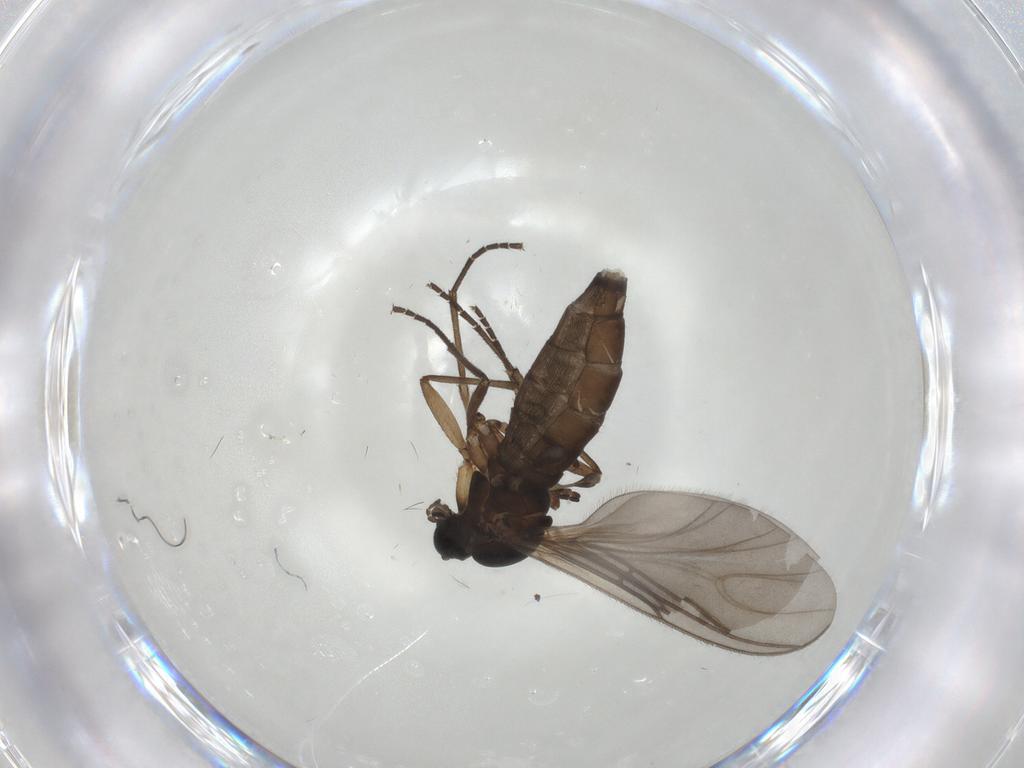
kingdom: Animalia
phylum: Arthropoda
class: Insecta
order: Diptera
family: Sciaridae
